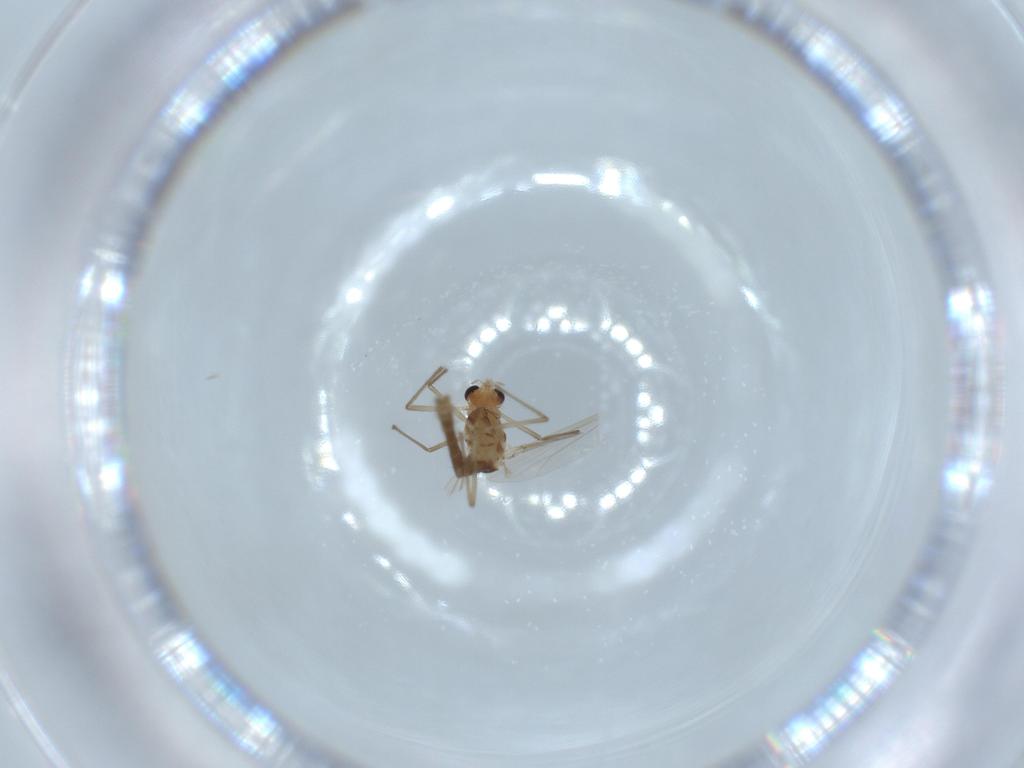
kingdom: Animalia
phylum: Arthropoda
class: Insecta
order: Diptera
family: Chironomidae
